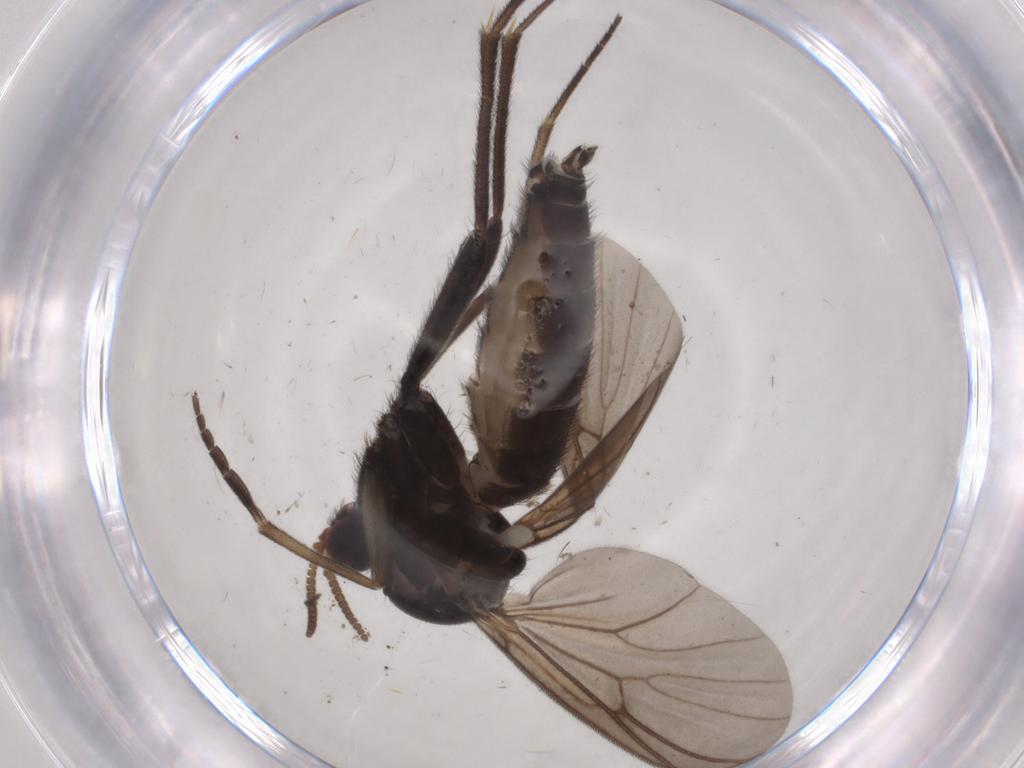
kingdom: Animalia
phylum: Arthropoda
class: Insecta
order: Diptera
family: Mycetophilidae
